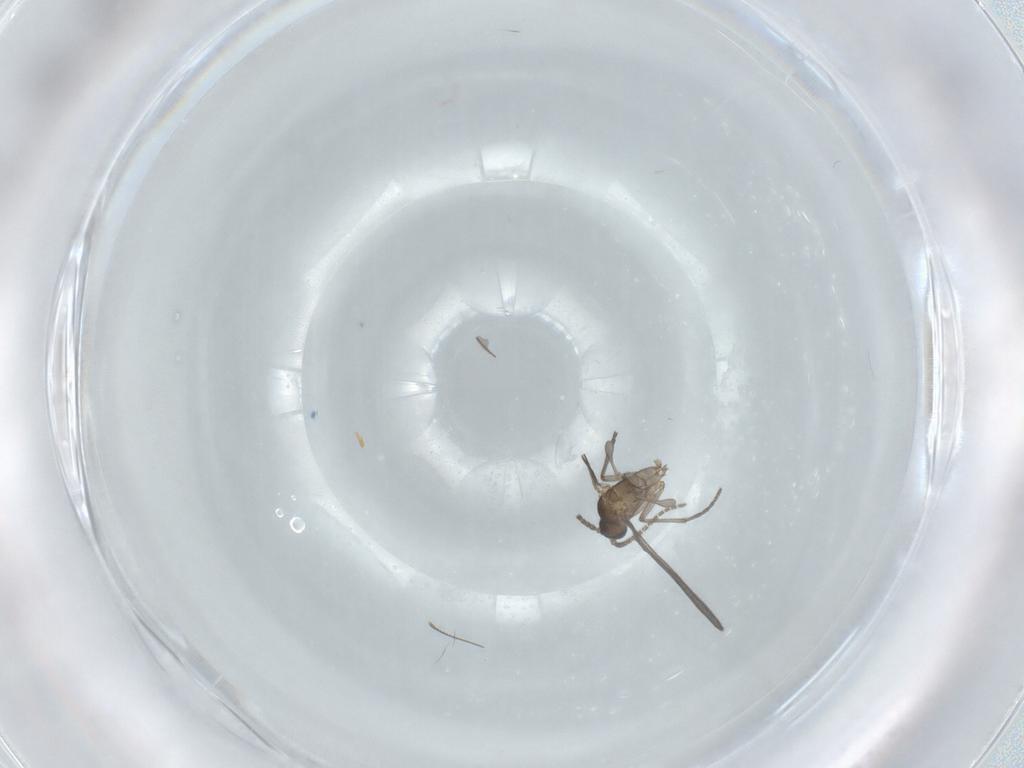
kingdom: Animalia
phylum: Arthropoda
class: Insecta
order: Diptera
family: Sciaridae
